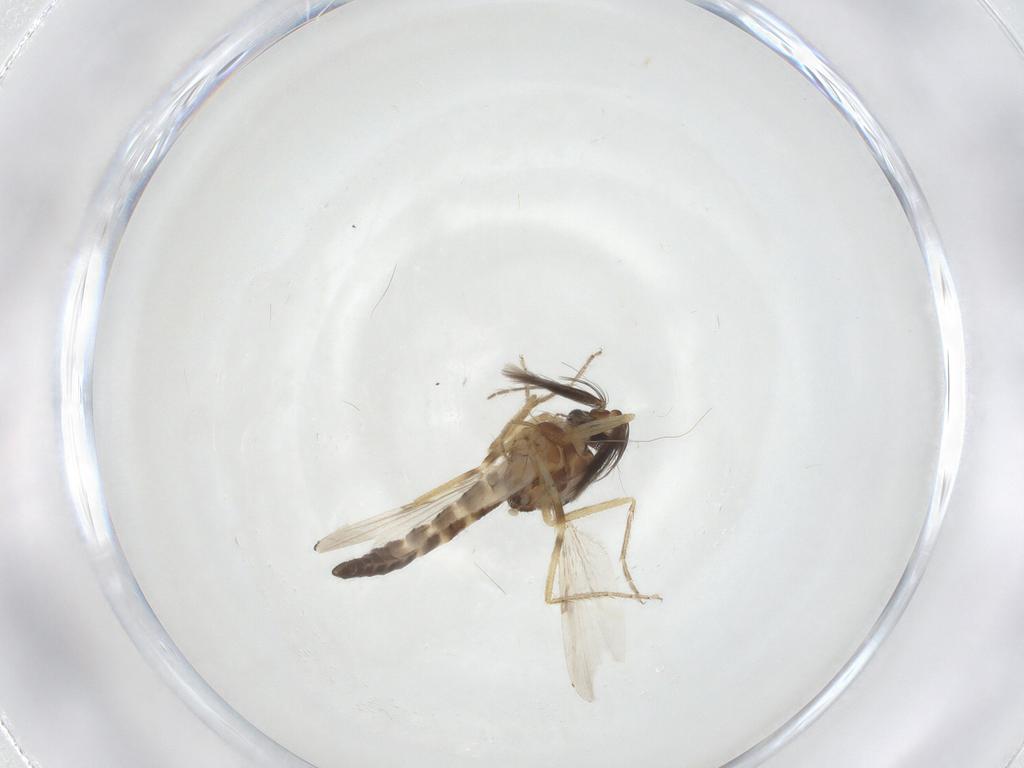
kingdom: Animalia
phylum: Arthropoda
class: Insecta
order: Diptera
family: Ceratopogonidae
